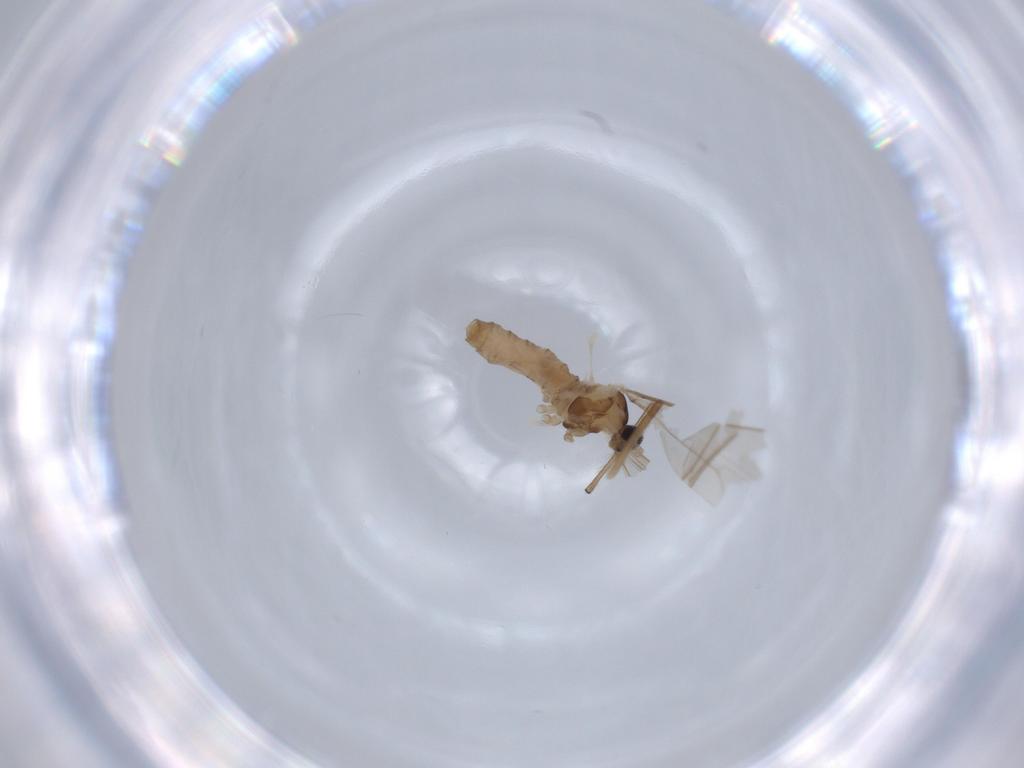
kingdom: Animalia
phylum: Arthropoda
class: Insecta
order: Diptera
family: Cecidomyiidae
